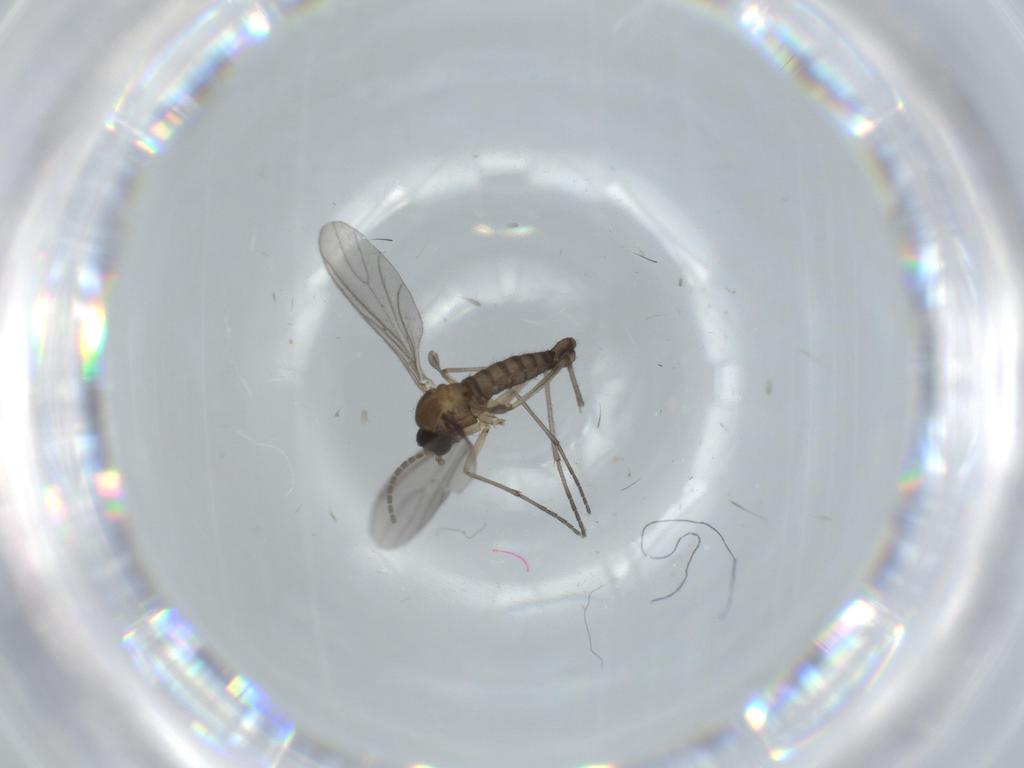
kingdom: Animalia
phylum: Arthropoda
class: Insecta
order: Diptera
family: Sciaridae
